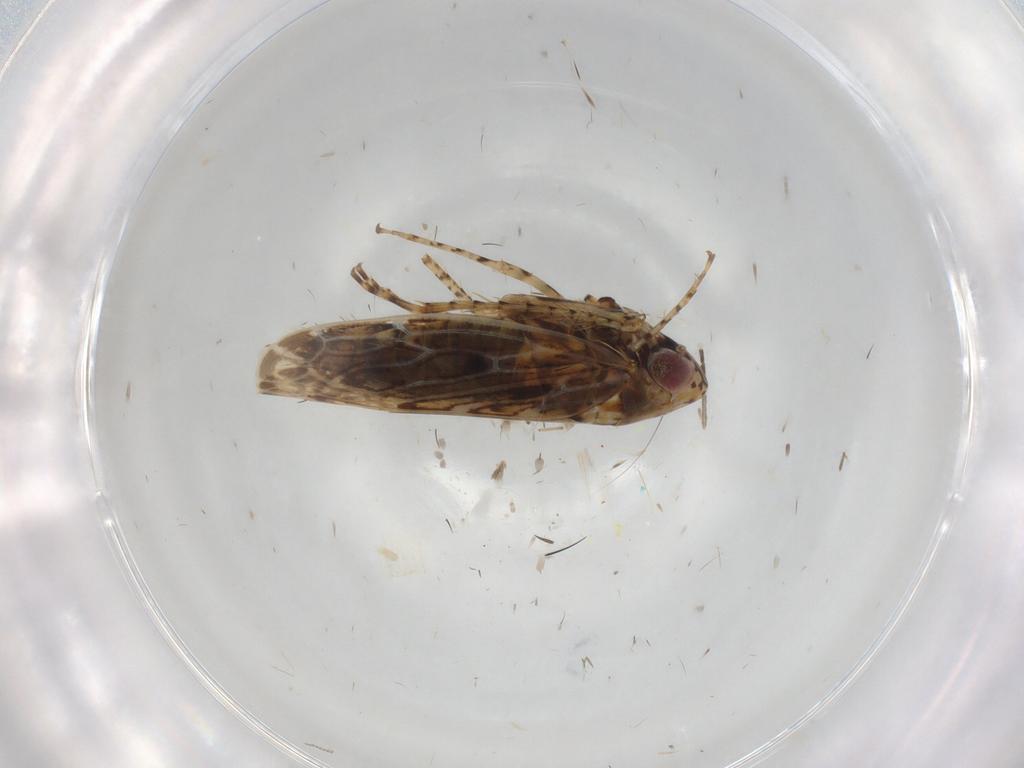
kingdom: Animalia
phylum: Arthropoda
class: Insecta
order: Hemiptera
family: Cicadellidae
